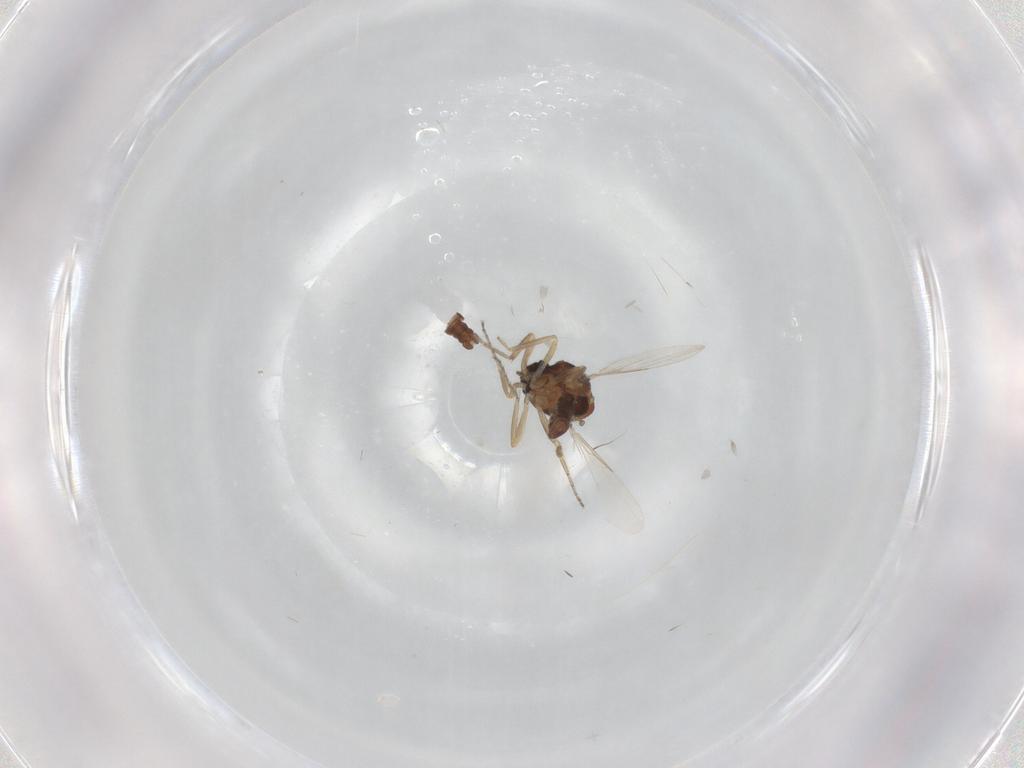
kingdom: Animalia
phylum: Arthropoda
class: Insecta
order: Diptera
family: Ceratopogonidae
